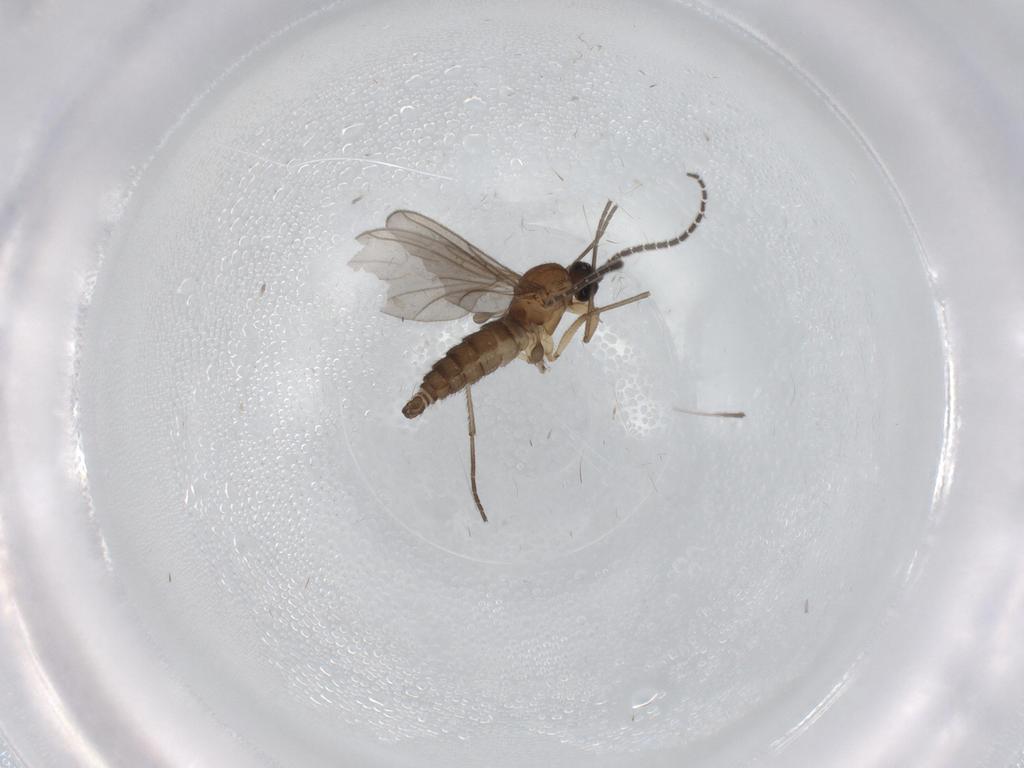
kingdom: Animalia
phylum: Arthropoda
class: Insecta
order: Diptera
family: Sciaridae
